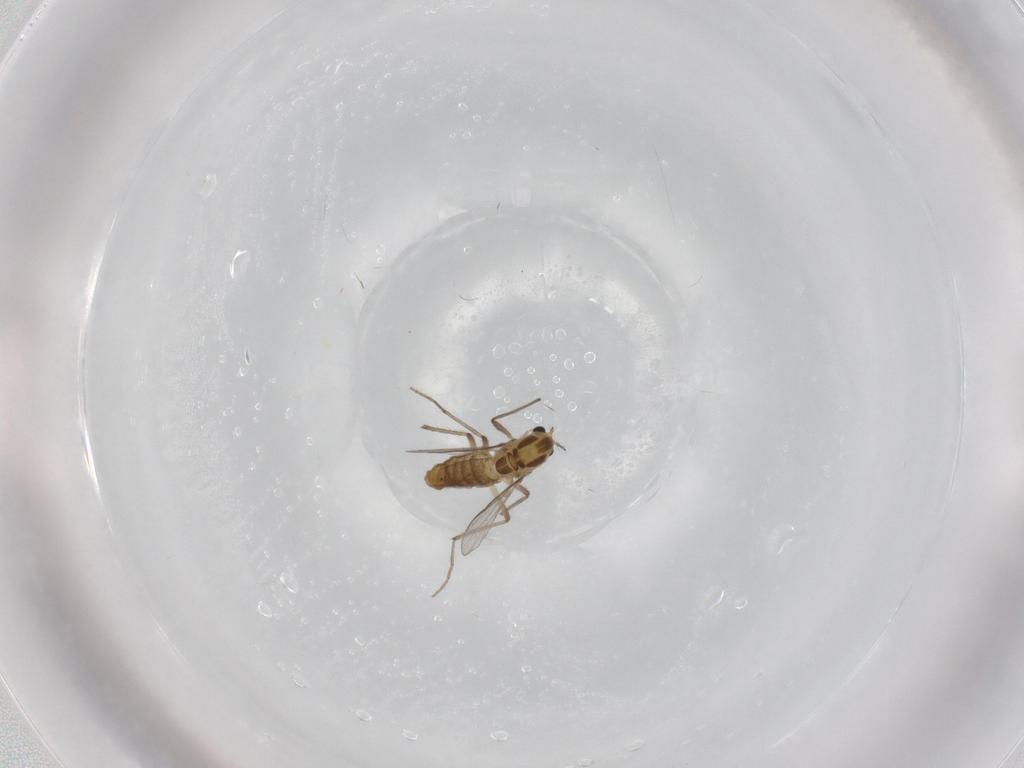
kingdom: Animalia
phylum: Arthropoda
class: Insecta
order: Diptera
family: Chironomidae
